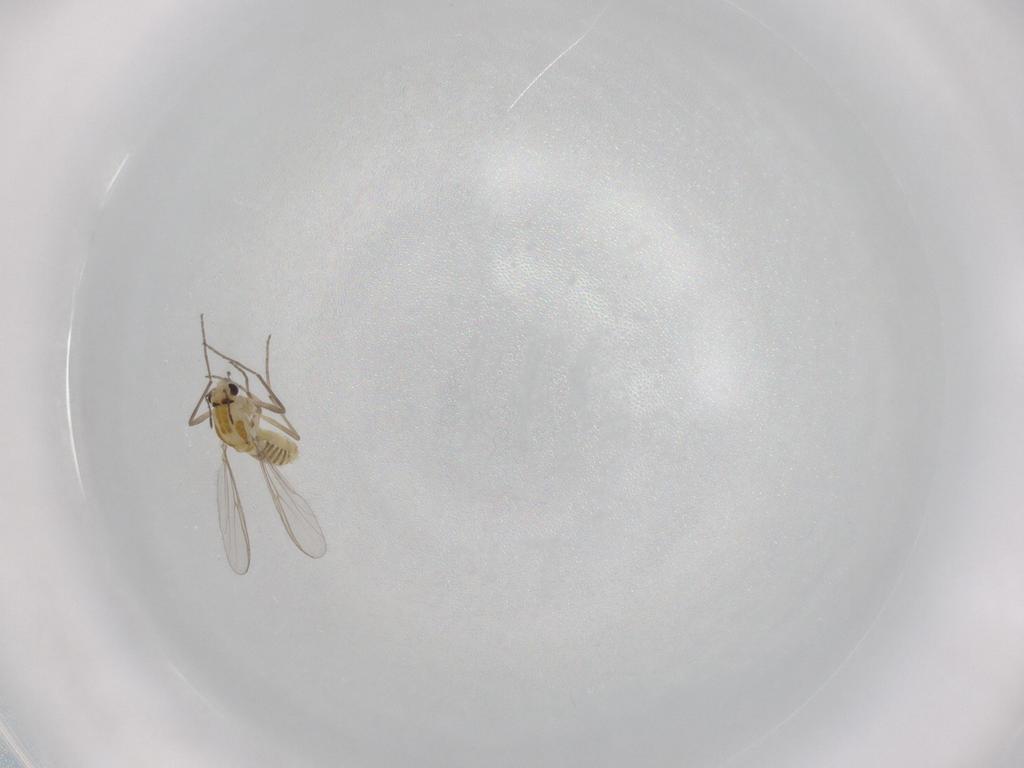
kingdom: Animalia
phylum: Arthropoda
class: Insecta
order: Diptera
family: Chironomidae
